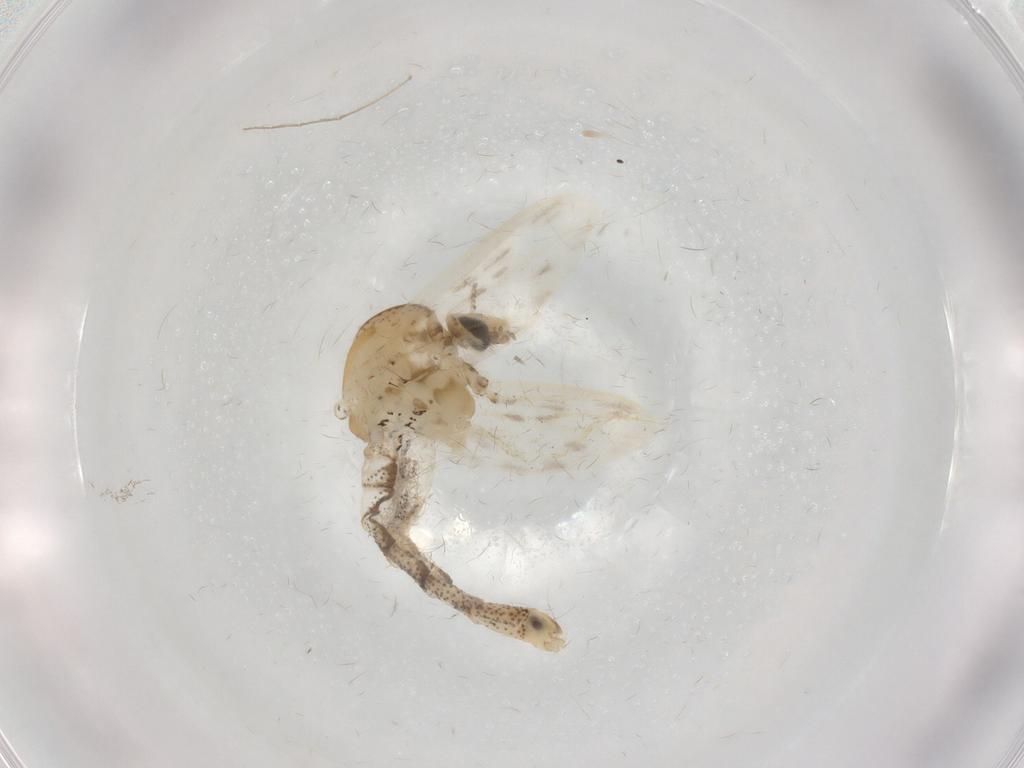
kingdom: Animalia
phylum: Arthropoda
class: Insecta
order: Diptera
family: Chaoboridae
